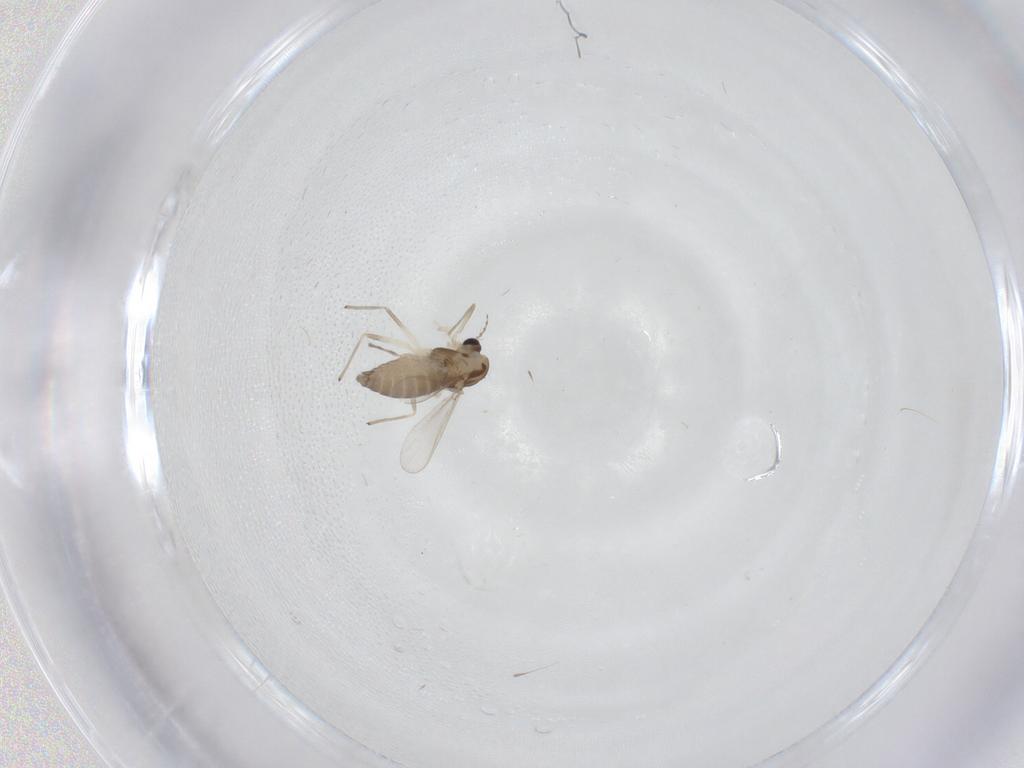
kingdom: Animalia
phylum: Arthropoda
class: Insecta
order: Diptera
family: Chironomidae
